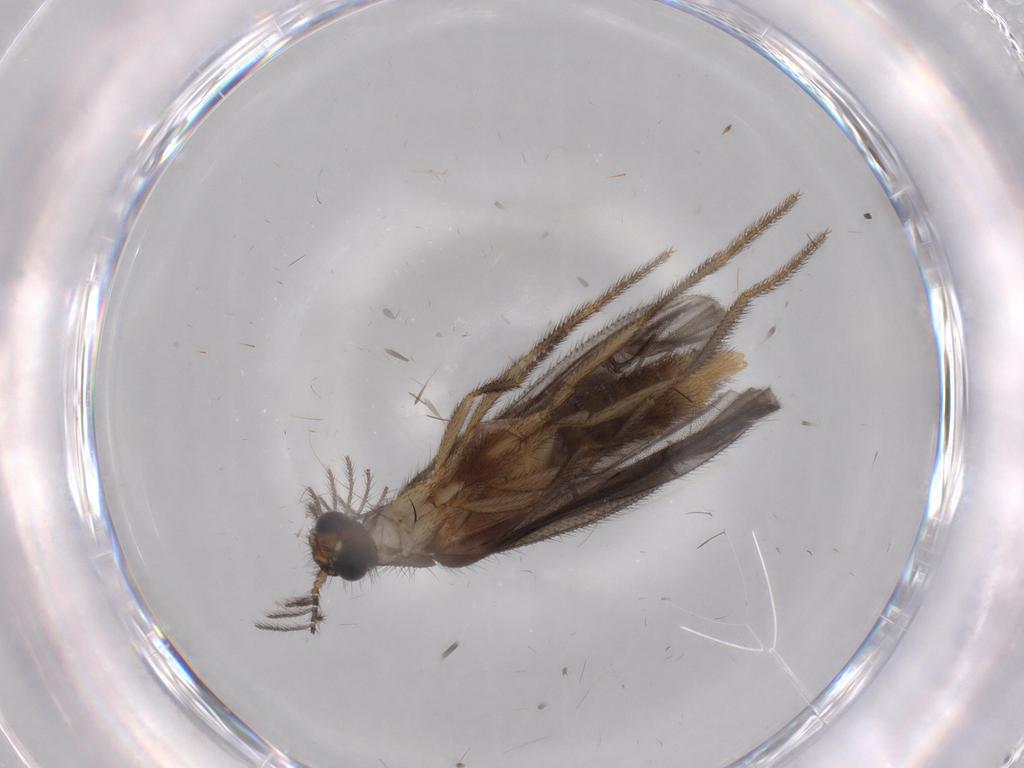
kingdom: Animalia
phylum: Arthropoda
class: Insecta
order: Coleoptera
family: Phengodidae
